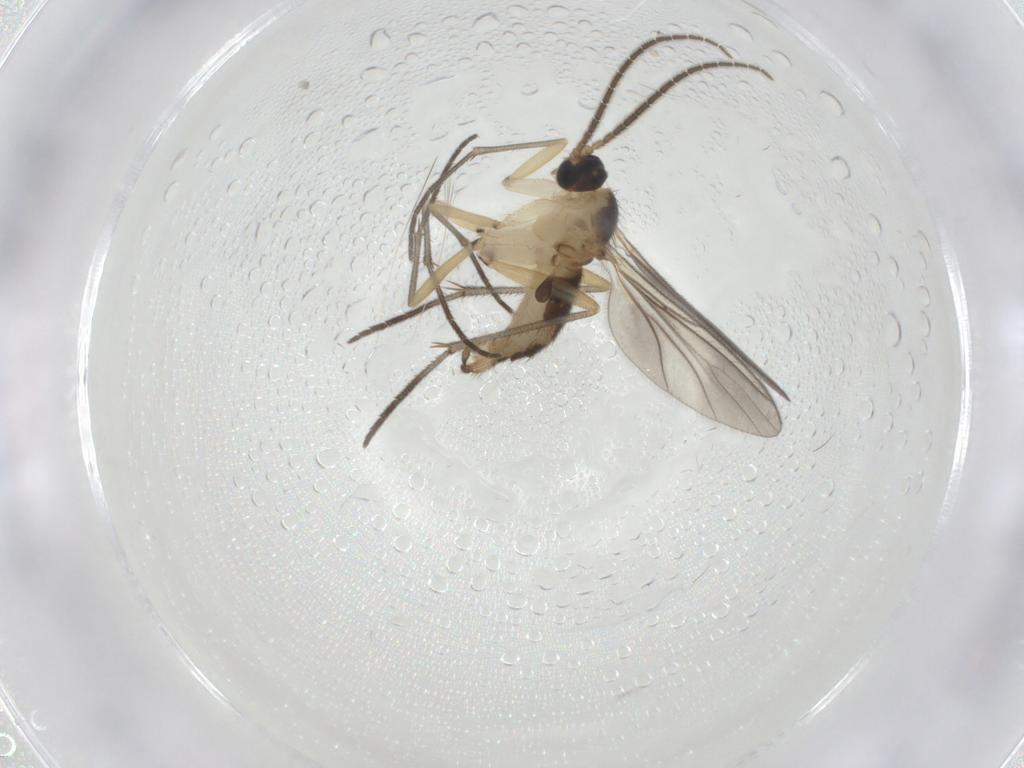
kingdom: Animalia
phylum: Arthropoda
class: Insecta
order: Diptera
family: Sciaridae
